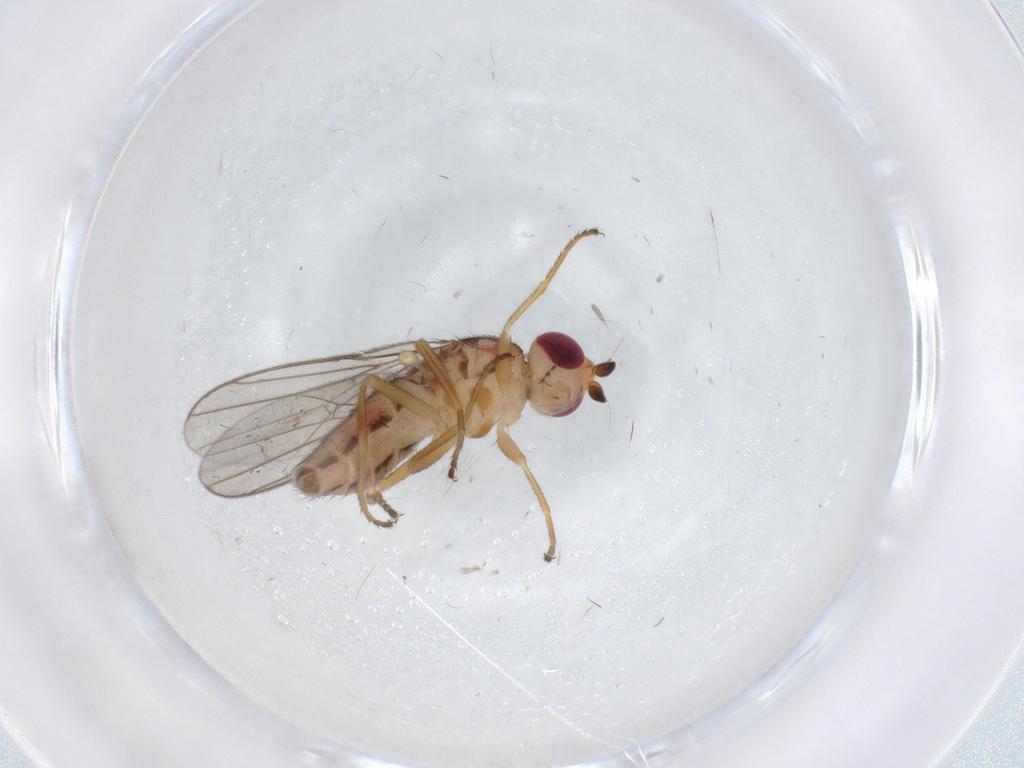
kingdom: Animalia
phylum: Arthropoda
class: Insecta
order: Diptera
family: Chloropidae
